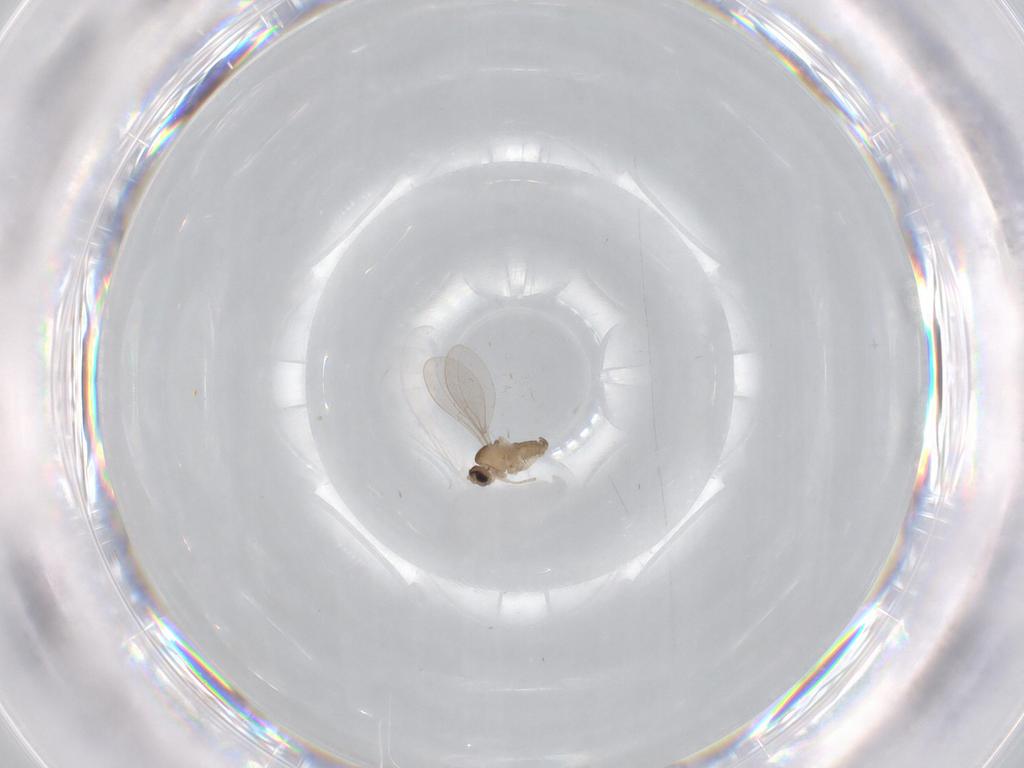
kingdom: Animalia
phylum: Arthropoda
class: Insecta
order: Diptera
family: Cecidomyiidae
